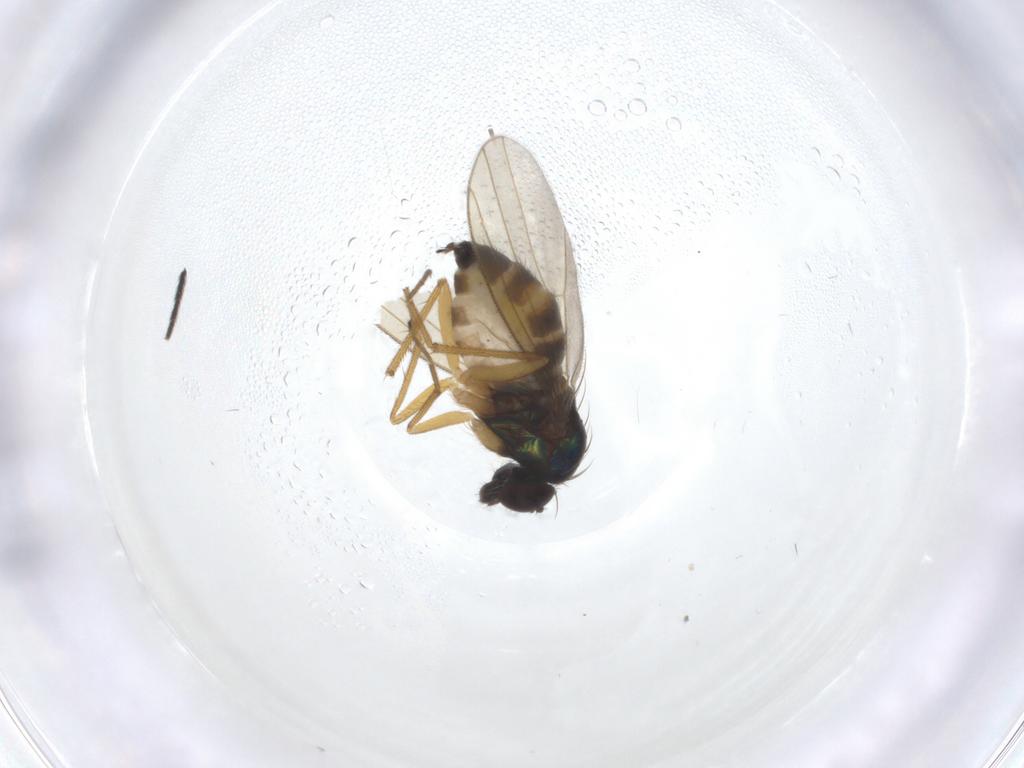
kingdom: Animalia
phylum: Arthropoda
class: Insecta
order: Diptera
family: Dolichopodidae
